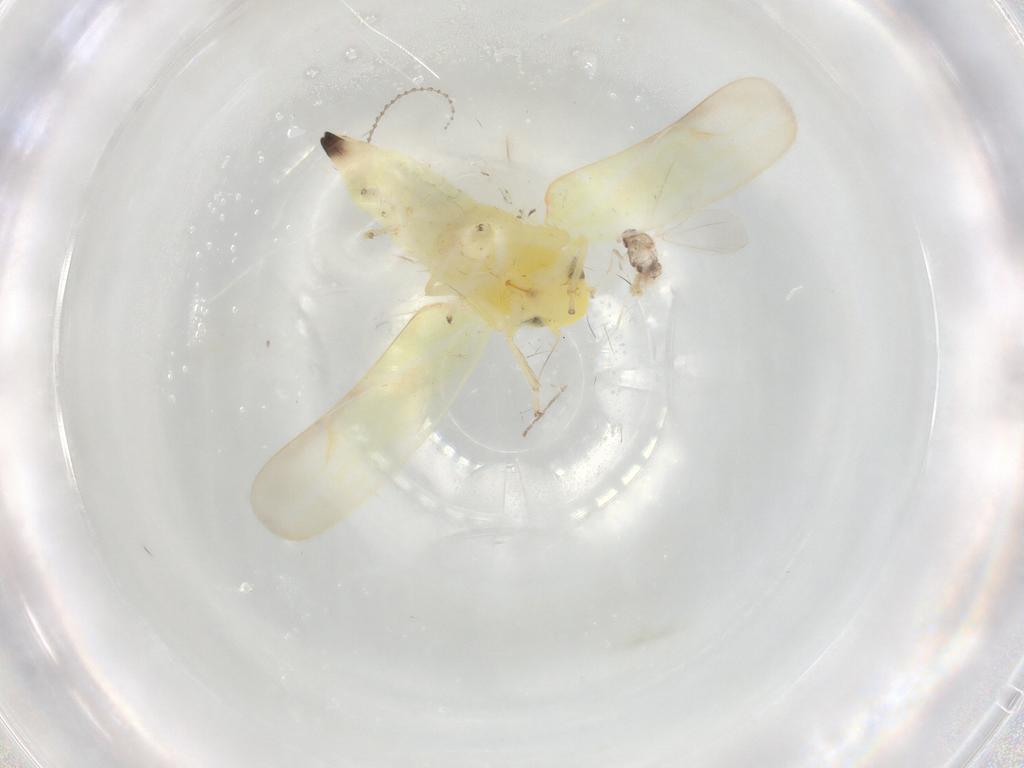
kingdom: Animalia
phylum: Arthropoda
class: Insecta
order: Hemiptera
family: Cicadellidae
